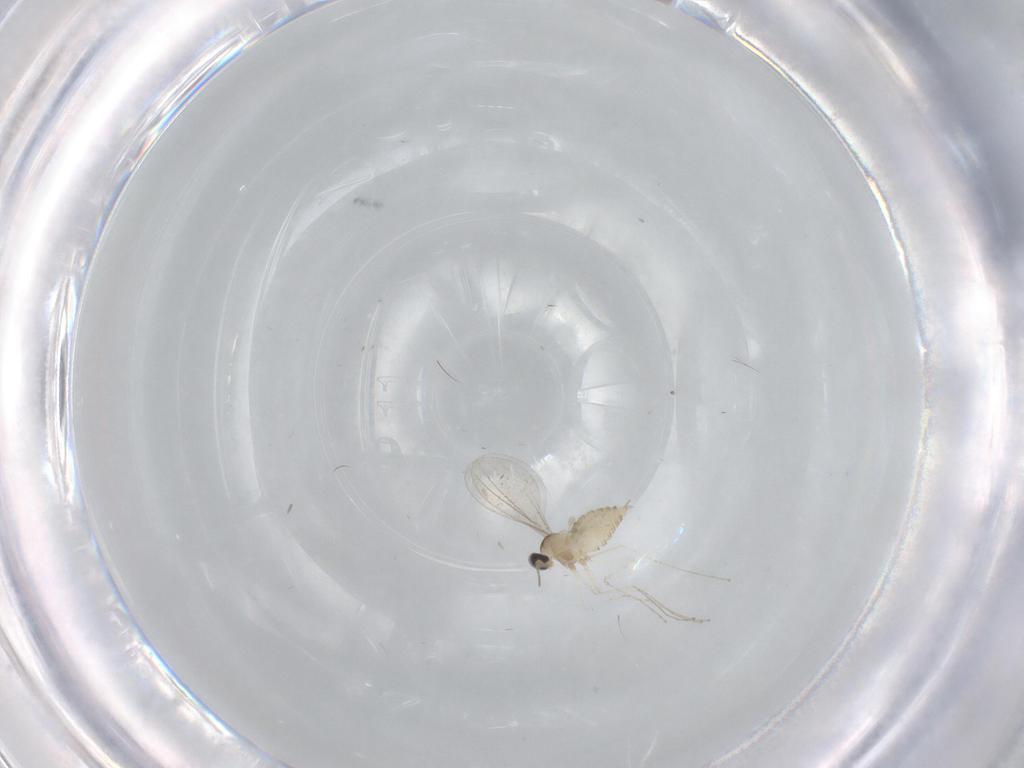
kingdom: Animalia
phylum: Arthropoda
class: Insecta
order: Diptera
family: Cecidomyiidae
